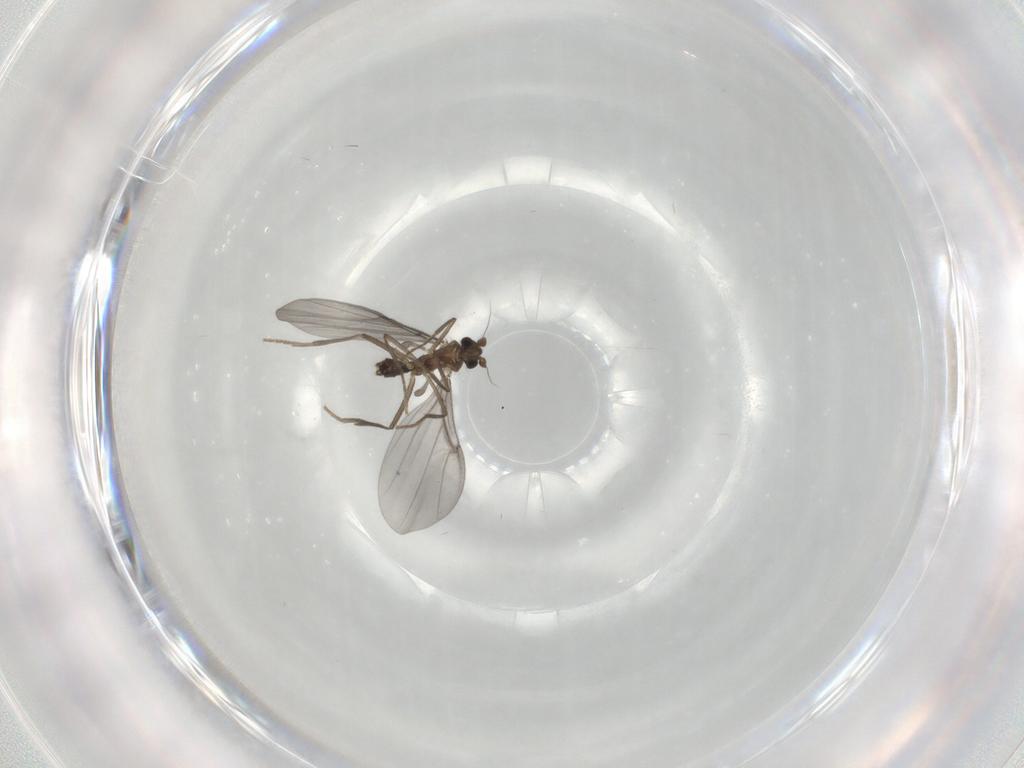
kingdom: Animalia
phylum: Arthropoda
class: Insecta
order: Diptera
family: Phoridae
